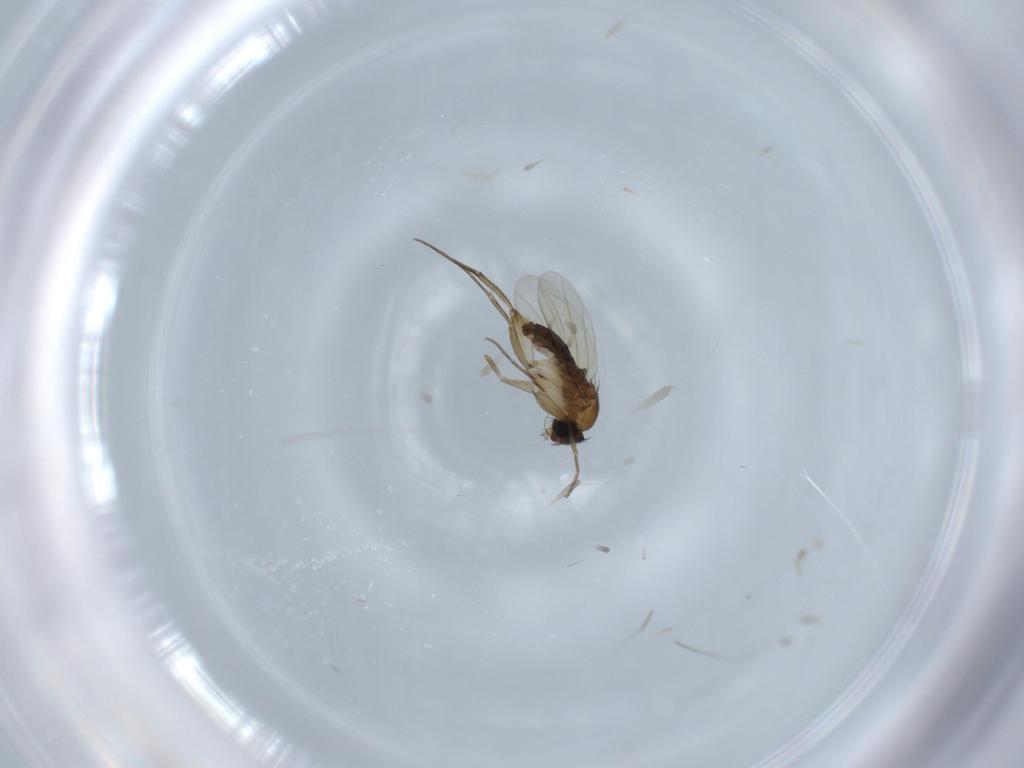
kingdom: Animalia
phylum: Arthropoda
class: Insecta
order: Diptera
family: Phoridae
